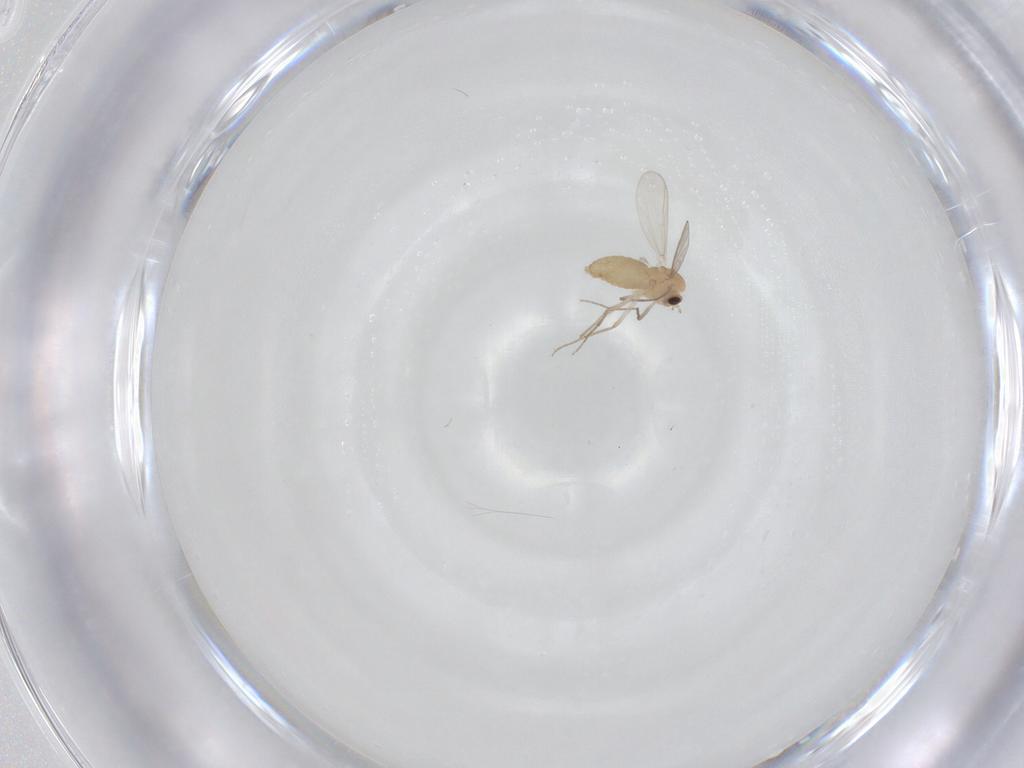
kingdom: Animalia
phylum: Arthropoda
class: Insecta
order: Diptera
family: Chironomidae
